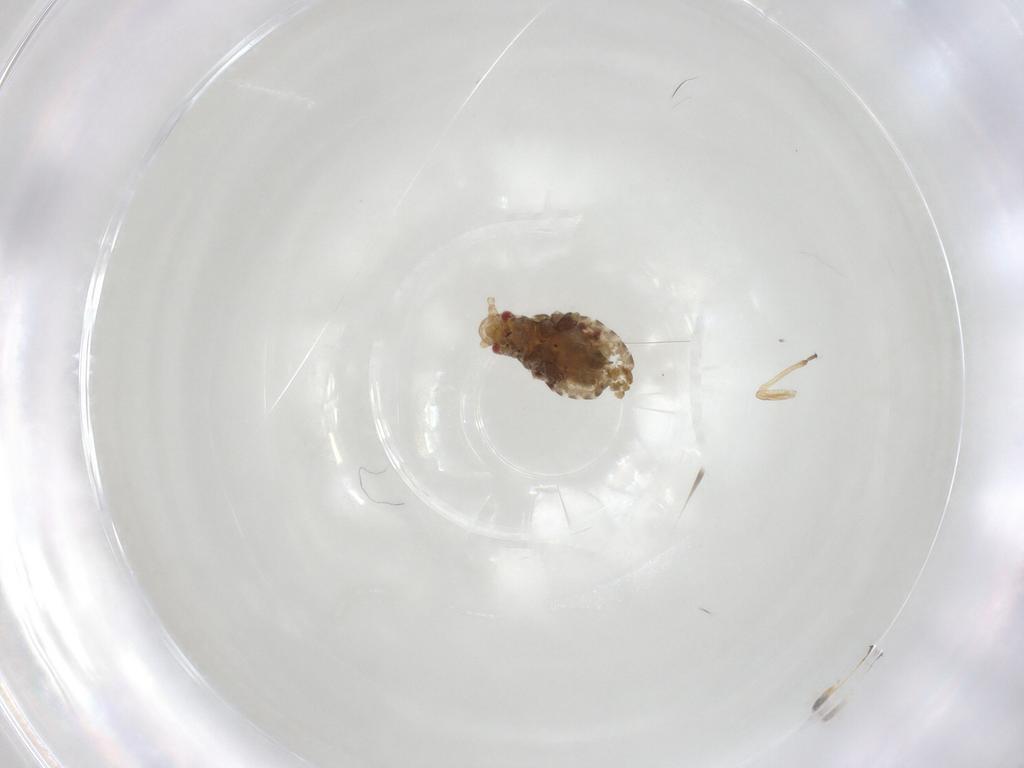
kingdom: Animalia
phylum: Arthropoda
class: Insecta
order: Hemiptera
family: Aphididae
